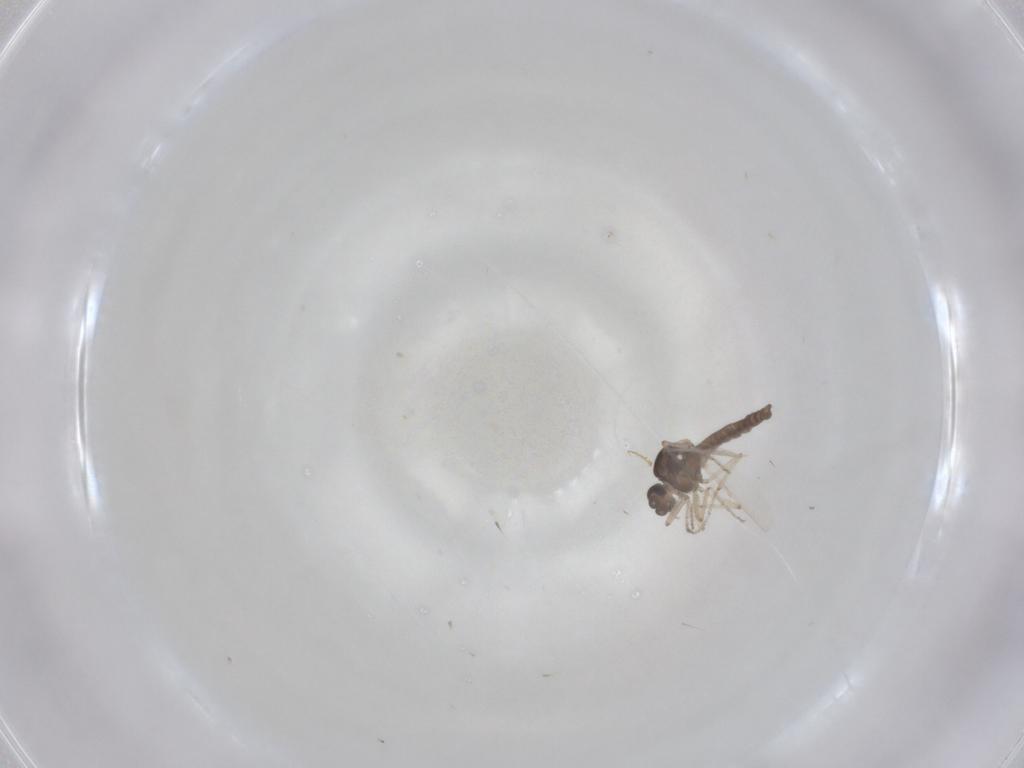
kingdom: Animalia
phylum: Arthropoda
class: Insecta
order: Diptera
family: Ceratopogonidae
